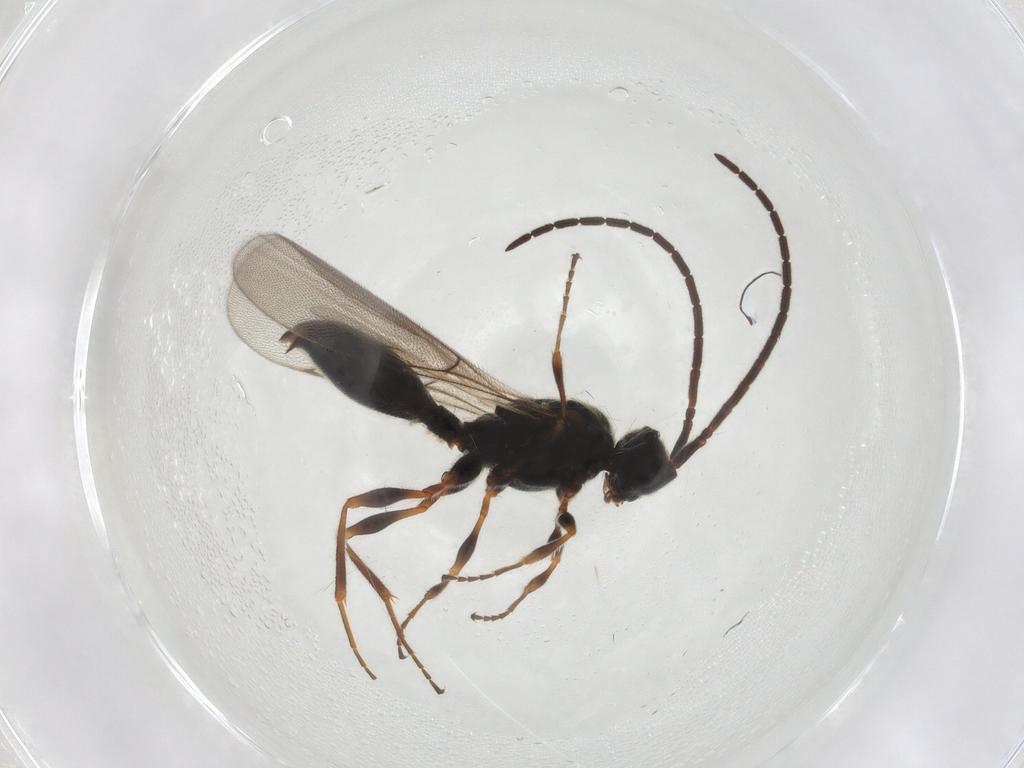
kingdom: Animalia
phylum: Arthropoda
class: Insecta
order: Hymenoptera
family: Diapriidae
